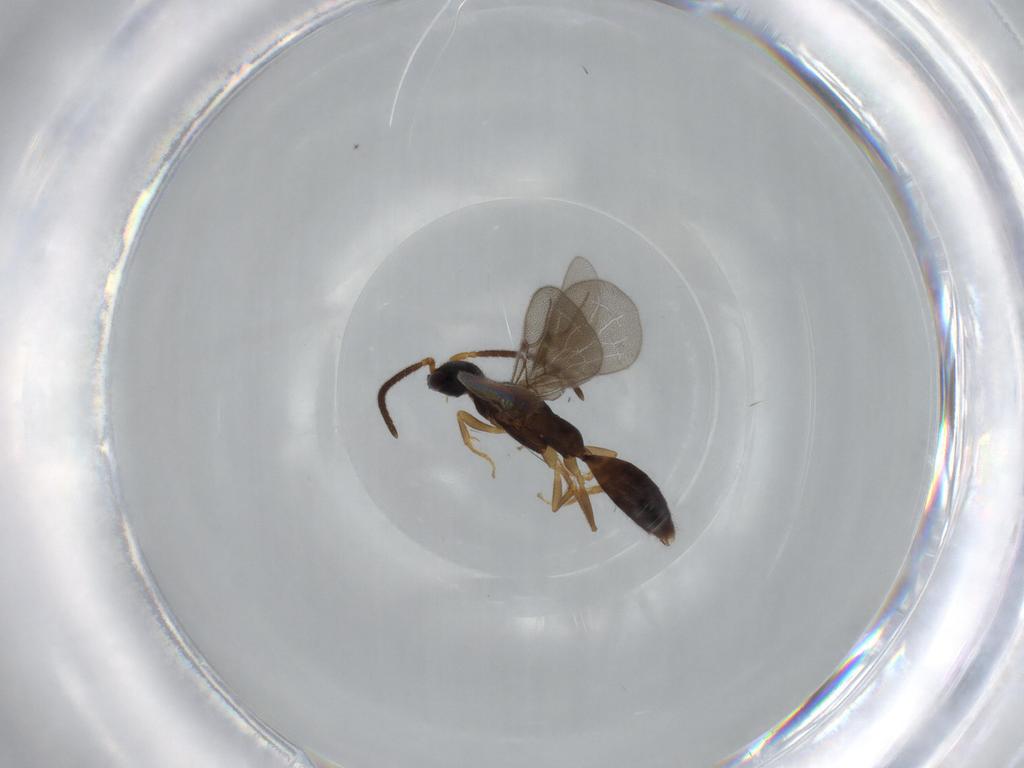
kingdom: Animalia
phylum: Arthropoda
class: Insecta
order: Hymenoptera
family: Bethylidae
